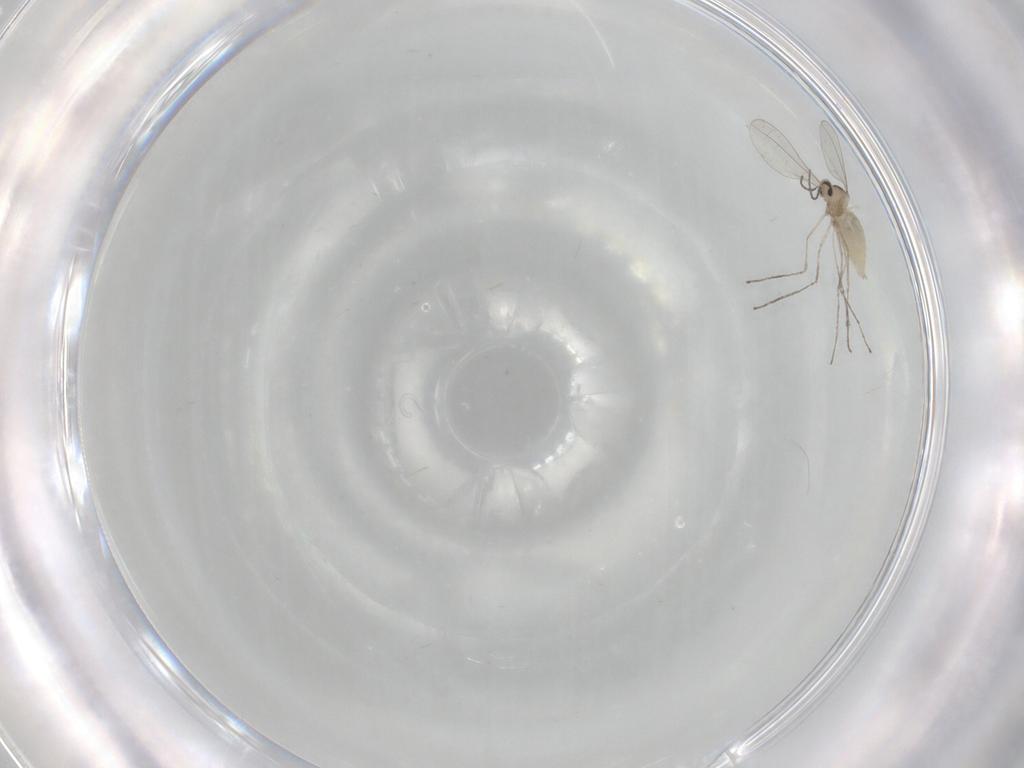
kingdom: Animalia
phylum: Arthropoda
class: Insecta
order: Diptera
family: Cecidomyiidae
